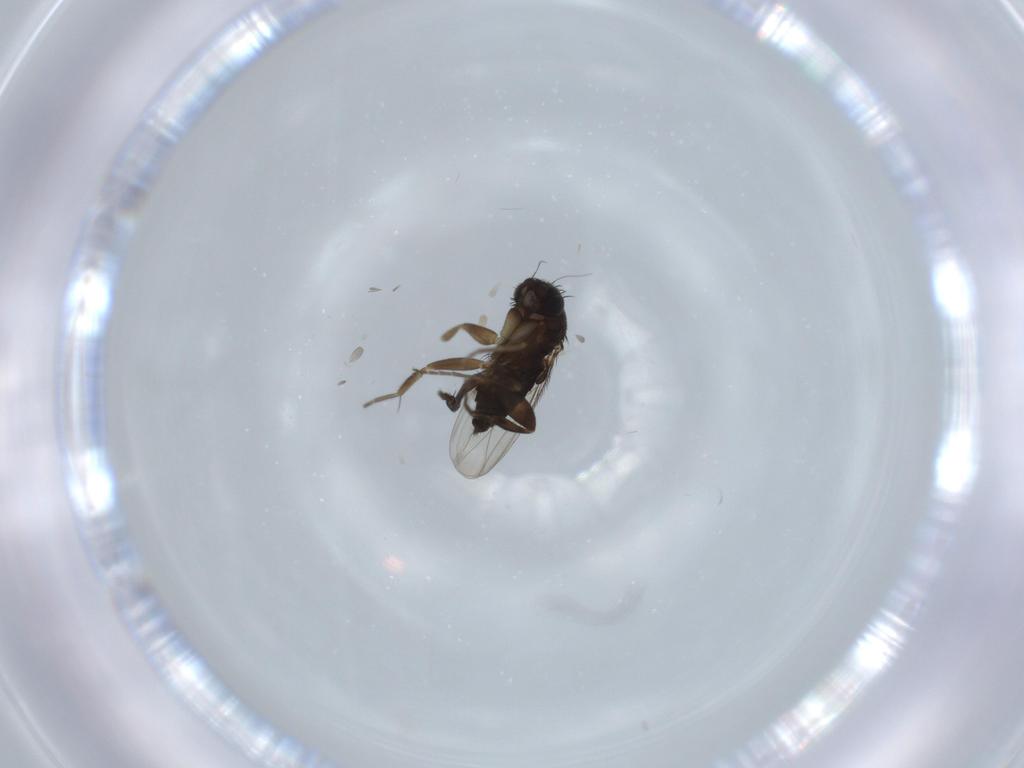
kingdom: Animalia
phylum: Arthropoda
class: Insecta
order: Diptera
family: Phoridae
